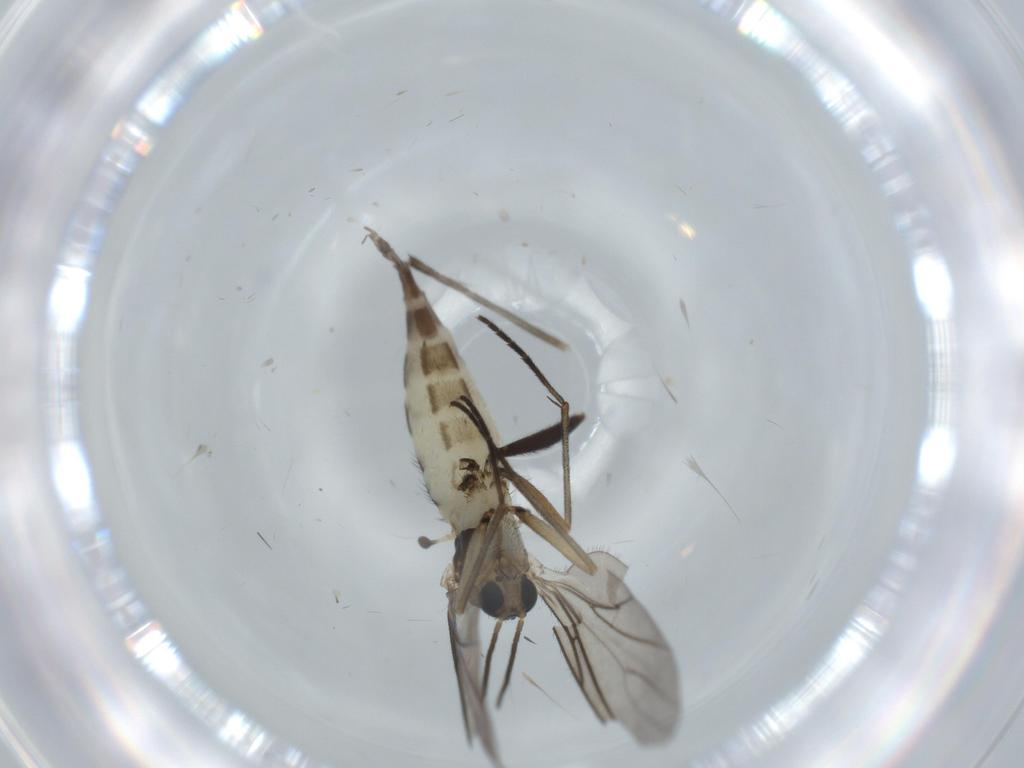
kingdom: Animalia
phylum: Arthropoda
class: Insecta
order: Diptera
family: Sciaridae
